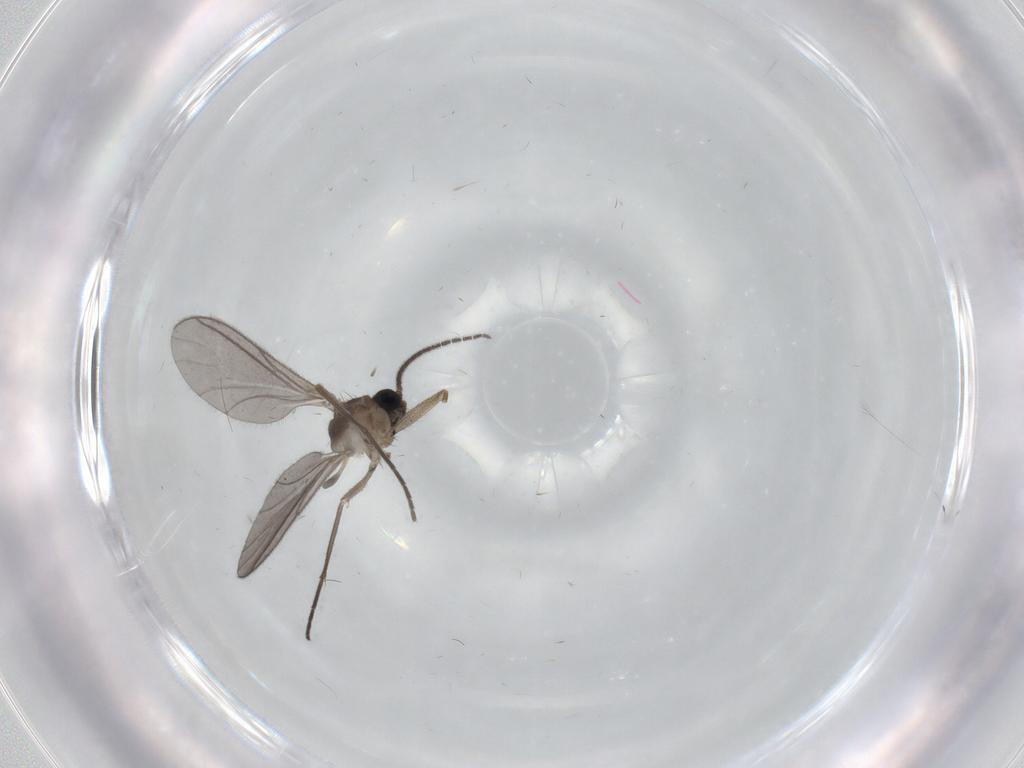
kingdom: Animalia
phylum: Arthropoda
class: Insecta
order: Diptera
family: Sciaridae
